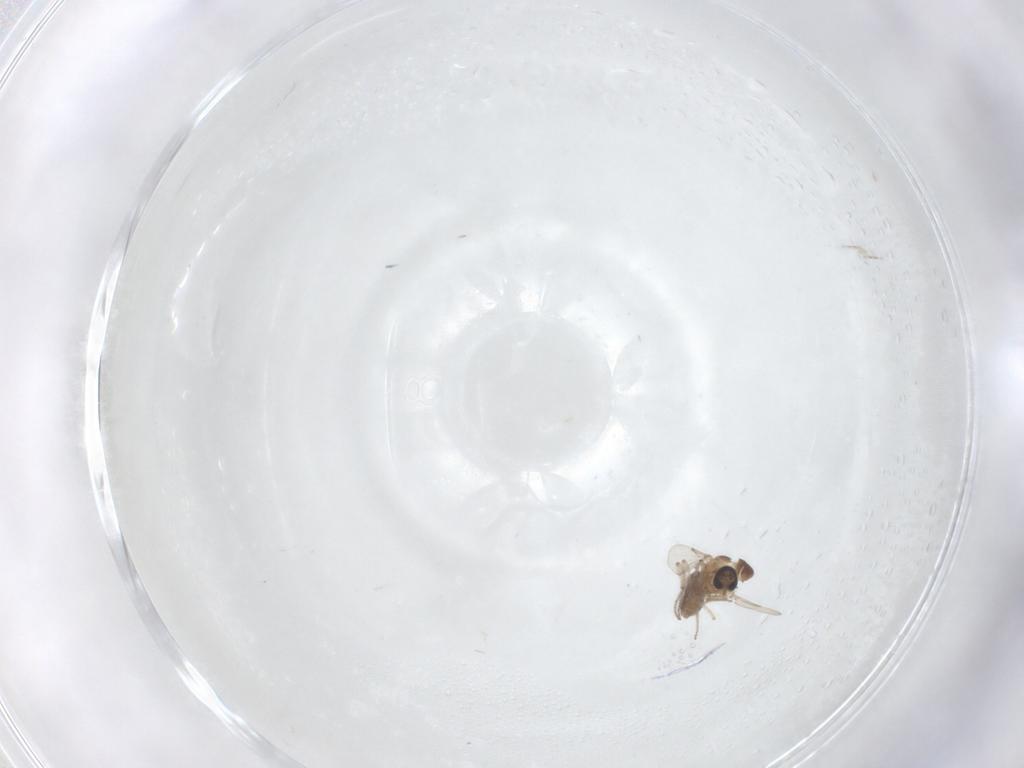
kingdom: Animalia
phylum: Arthropoda
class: Insecta
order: Diptera
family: Ceratopogonidae
